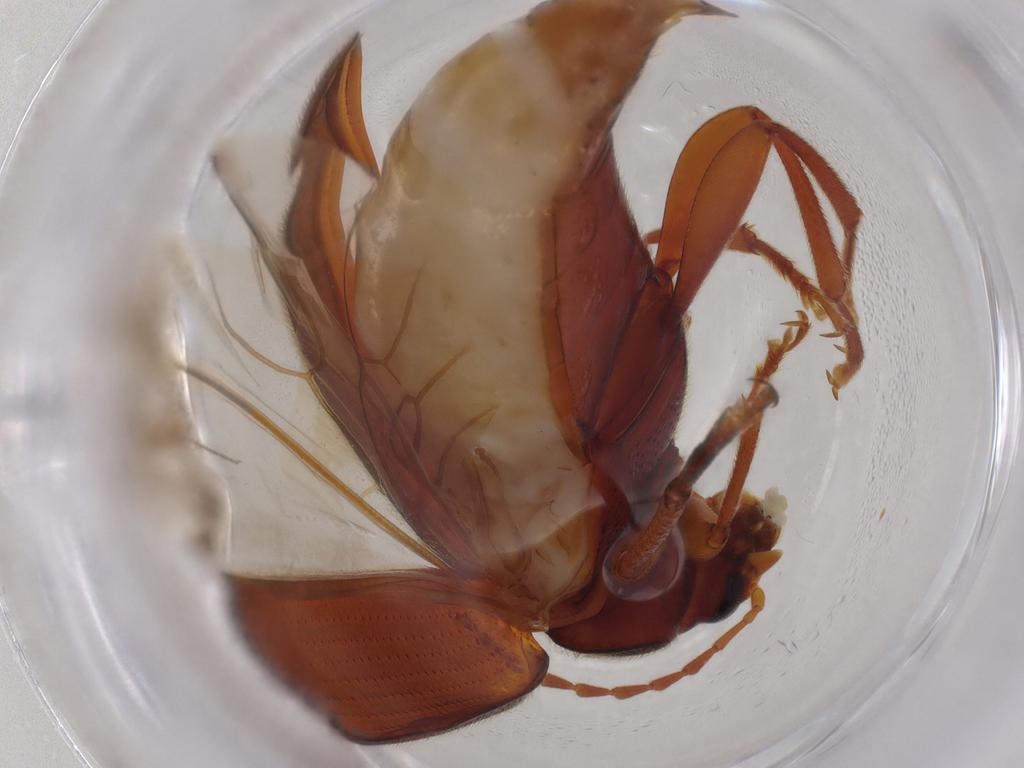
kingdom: Animalia
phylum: Arthropoda
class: Insecta
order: Coleoptera
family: Tenebrionidae
